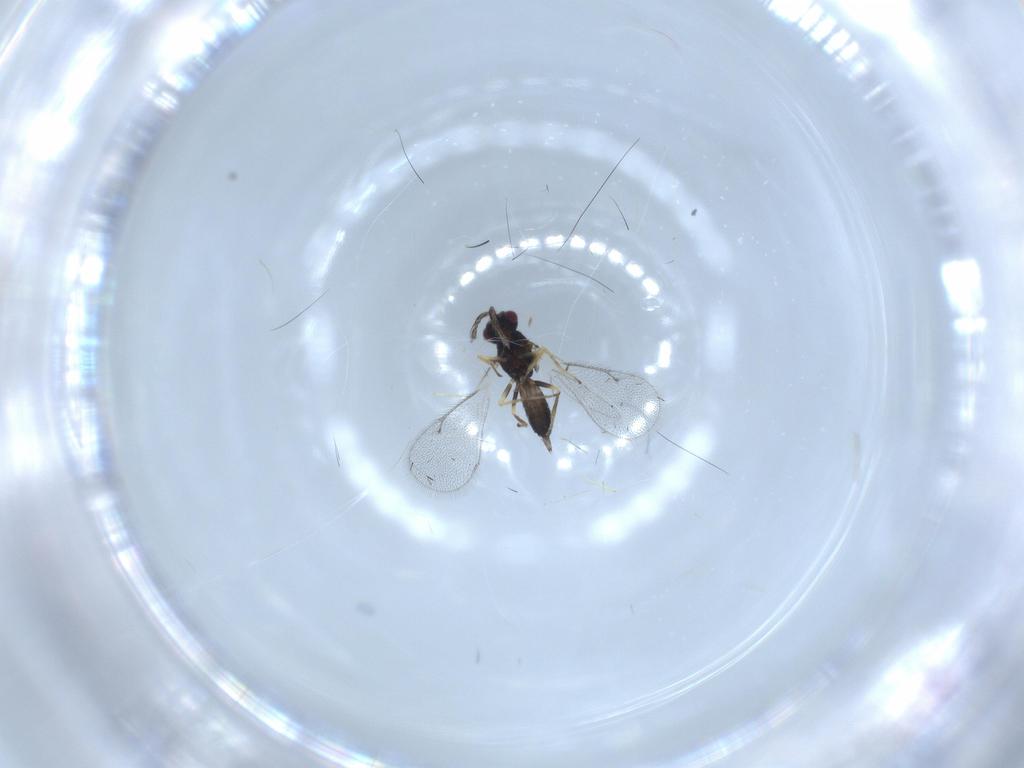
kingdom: Animalia
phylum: Arthropoda
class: Insecta
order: Hymenoptera
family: Eulophidae
